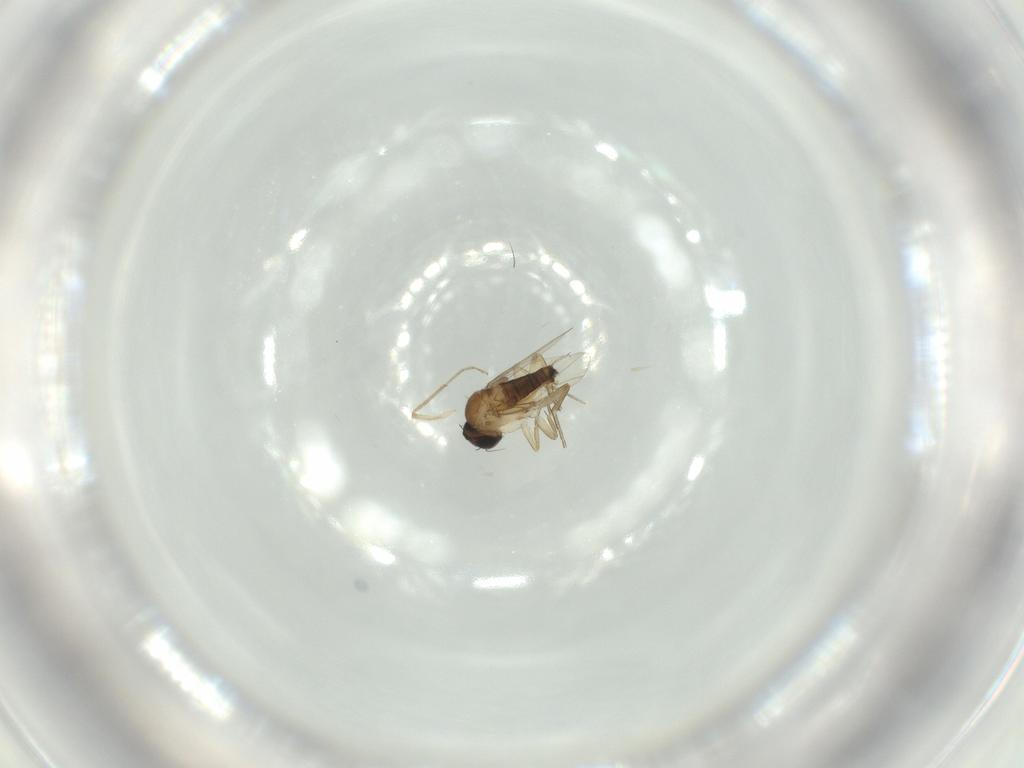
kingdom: Animalia
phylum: Arthropoda
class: Insecta
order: Diptera
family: Phoridae
